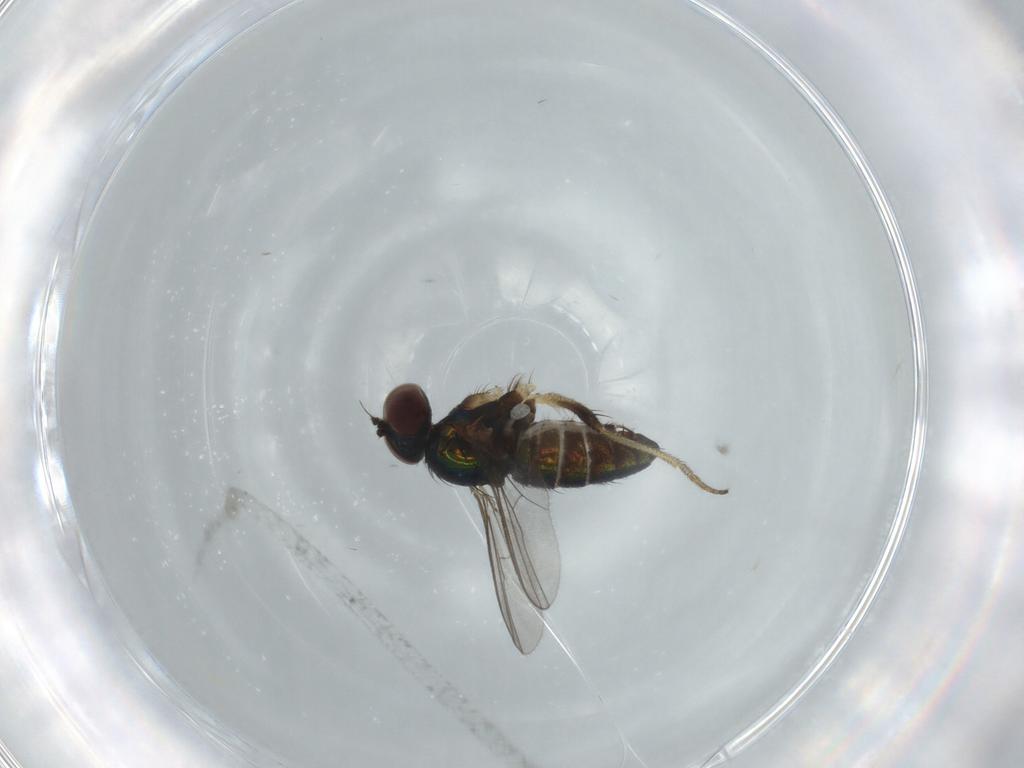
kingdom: Animalia
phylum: Arthropoda
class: Insecta
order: Diptera
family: Dolichopodidae
